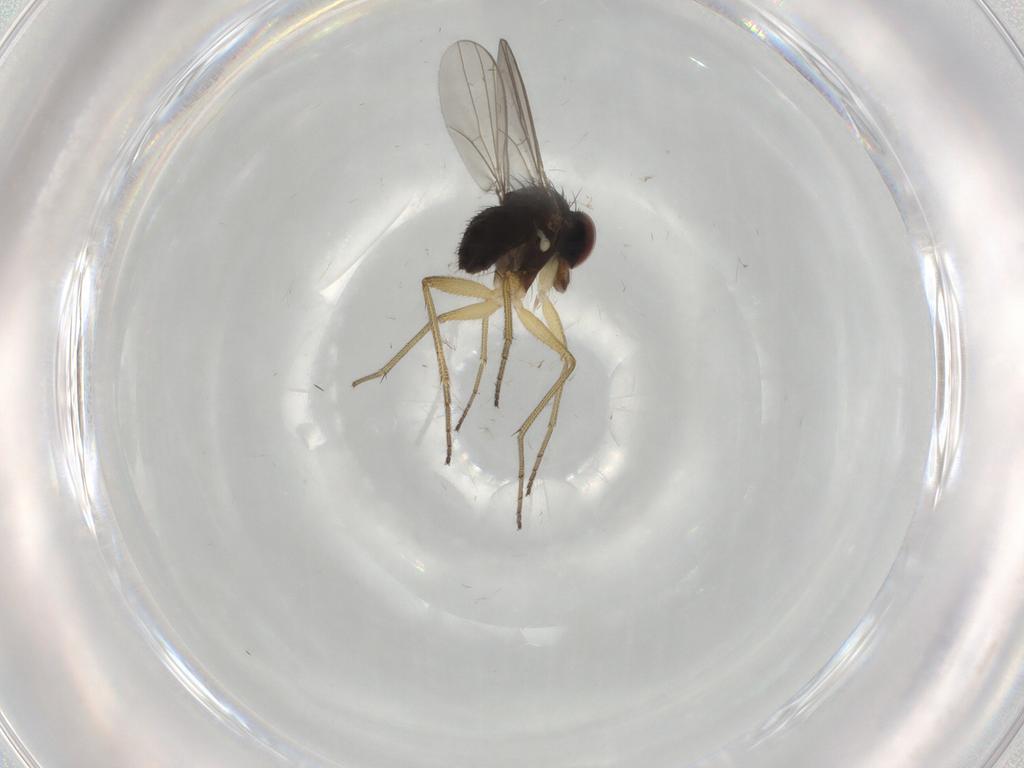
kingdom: Animalia
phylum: Arthropoda
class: Insecta
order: Diptera
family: Dolichopodidae
